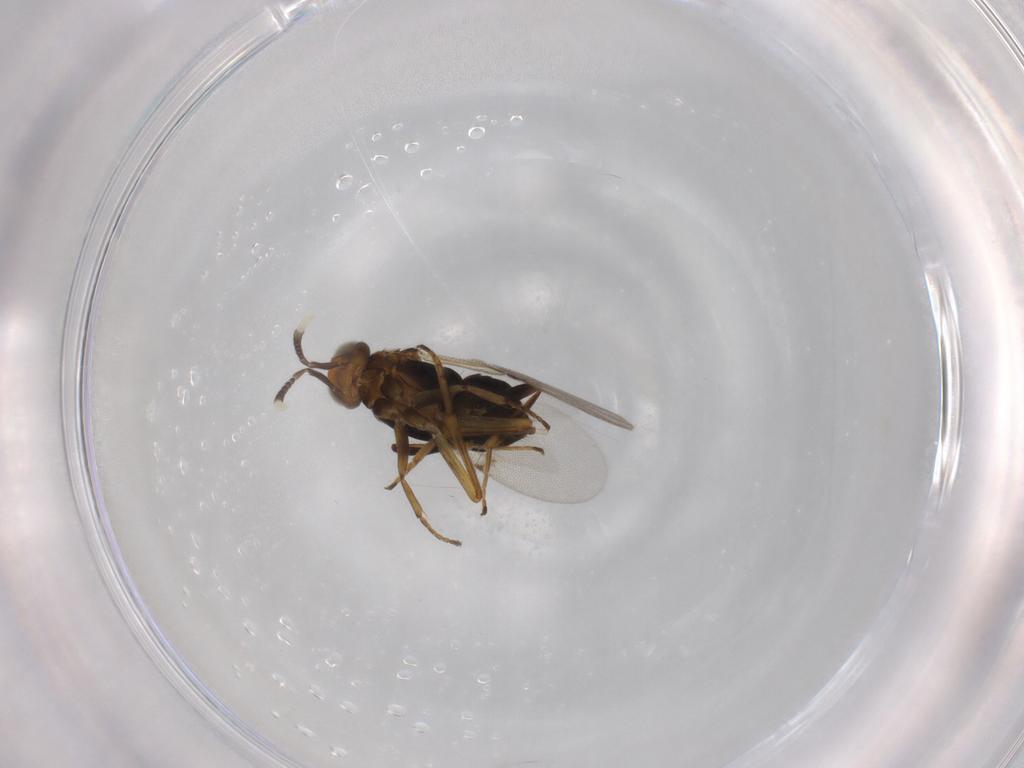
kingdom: Animalia
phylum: Arthropoda
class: Insecta
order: Hymenoptera
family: Encyrtidae
